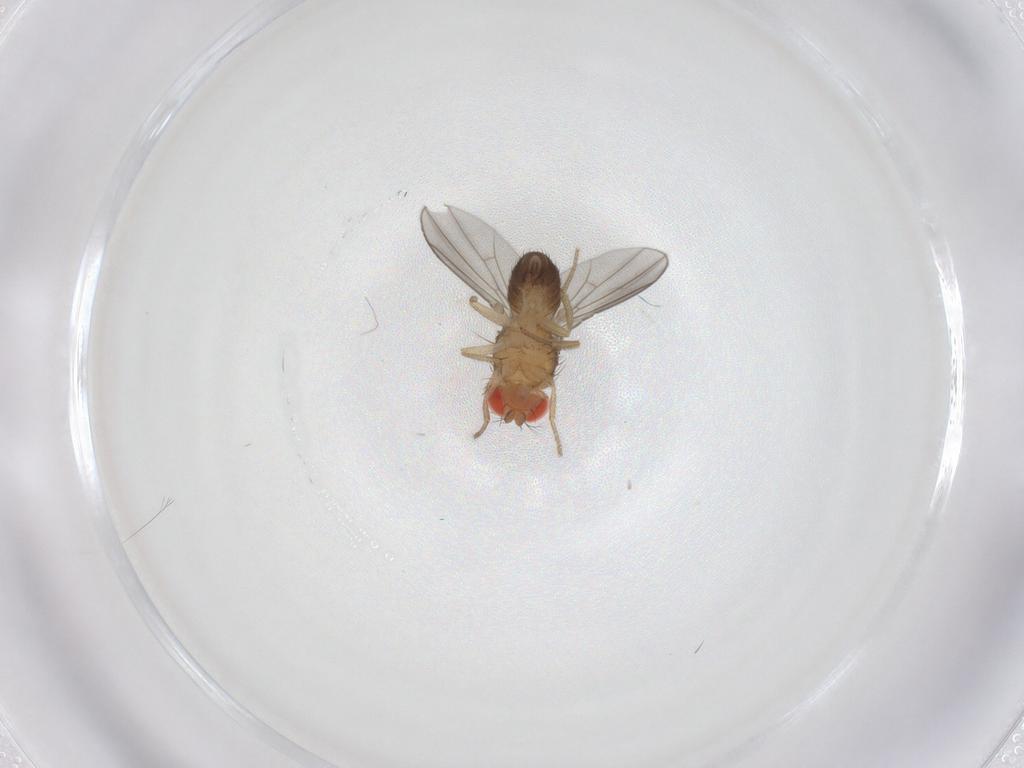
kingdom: Animalia
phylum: Arthropoda
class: Insecta
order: Diptera
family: Drosophilidae
